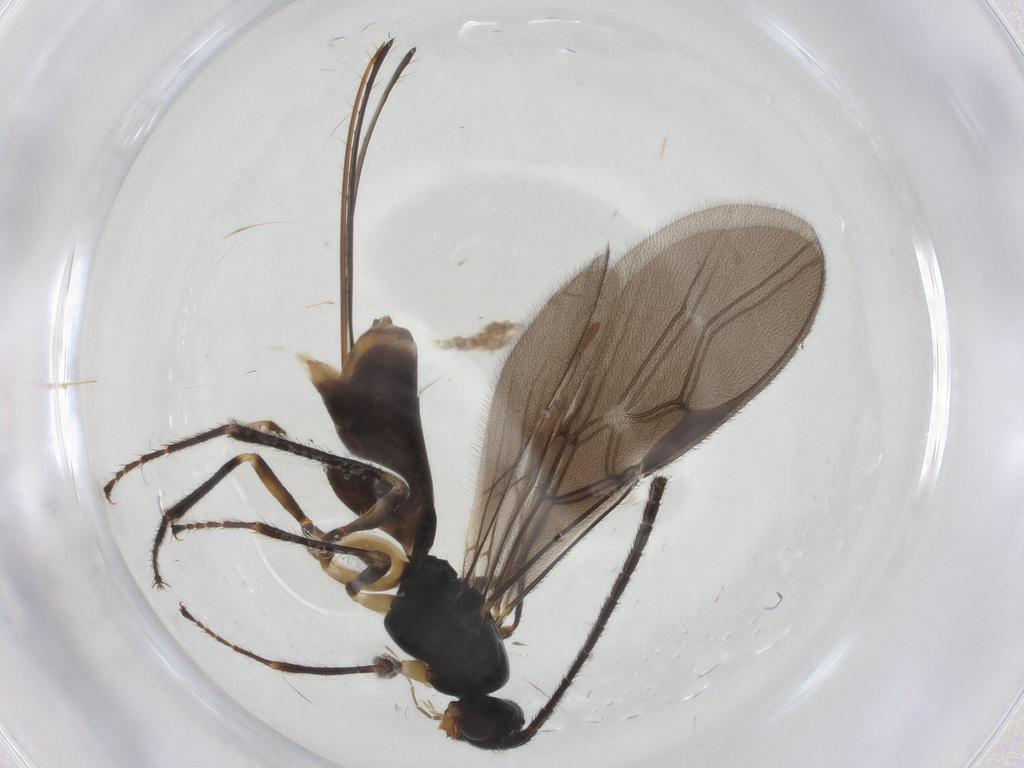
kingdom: Animalia
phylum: Arthropoda
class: Insecta
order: Hymenoptera
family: Braconidae
